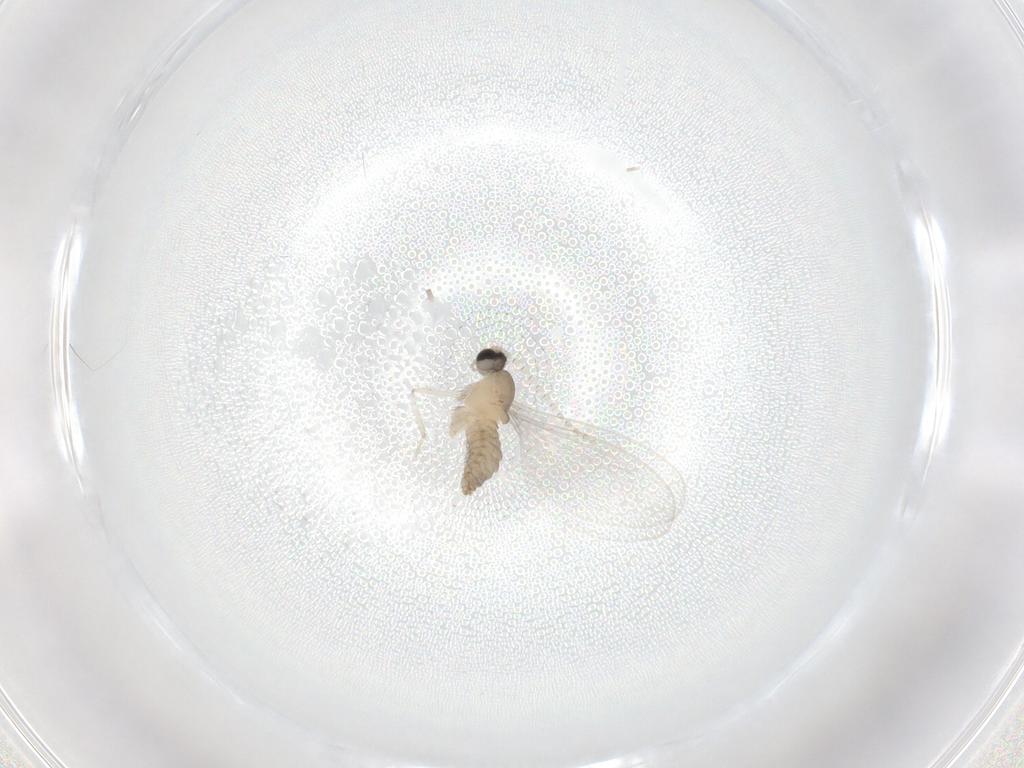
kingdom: Animalia
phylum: Arthropoda
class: Insecta
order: Diptera
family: Cecidomyiidae
